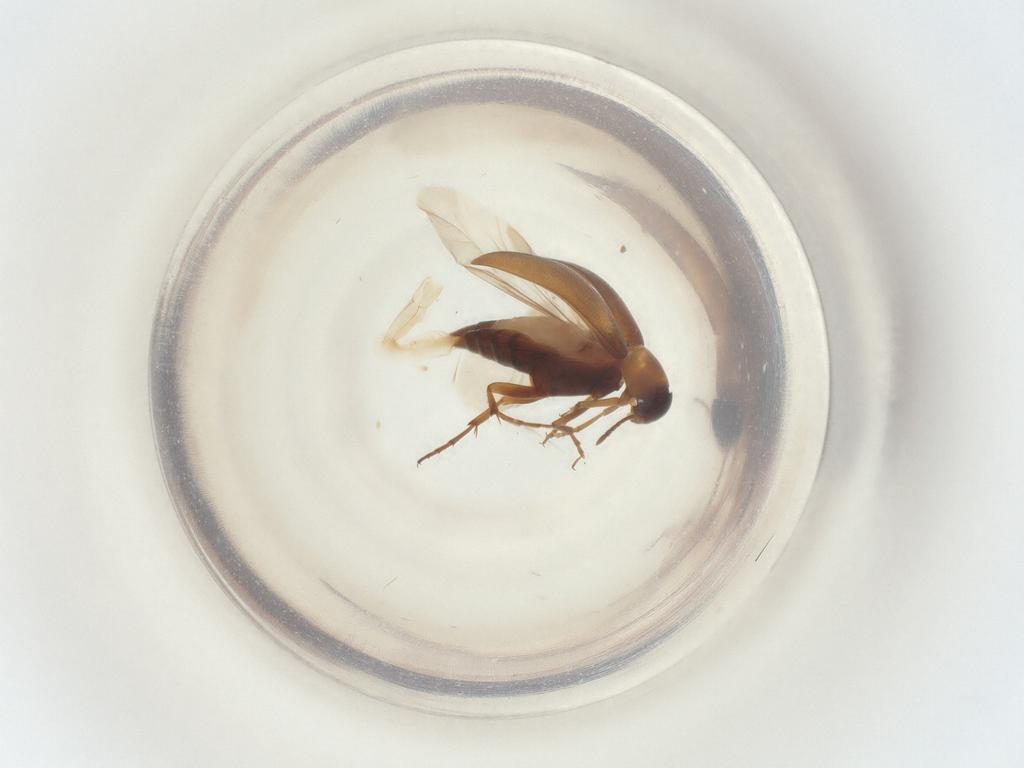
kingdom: Animalia
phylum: Arthropoda
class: Insecta
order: Coleoptera
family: Scraptiidae
